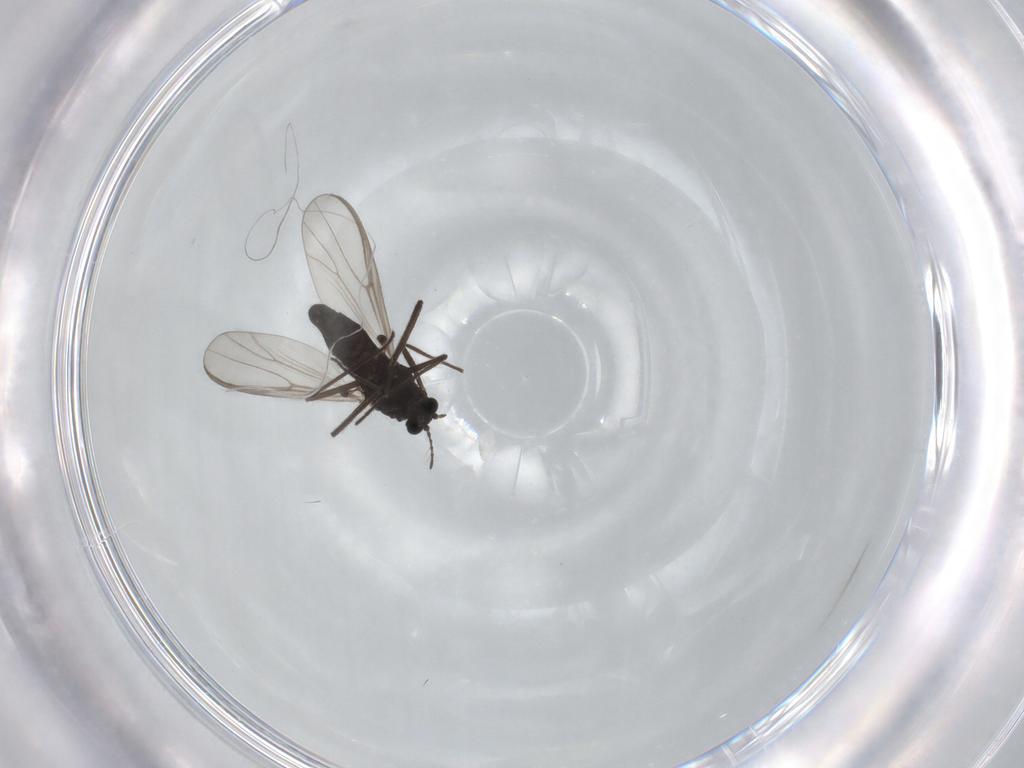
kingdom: Animalia
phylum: Arthropoda
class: Insecta
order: Diptera
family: Chironomidae
